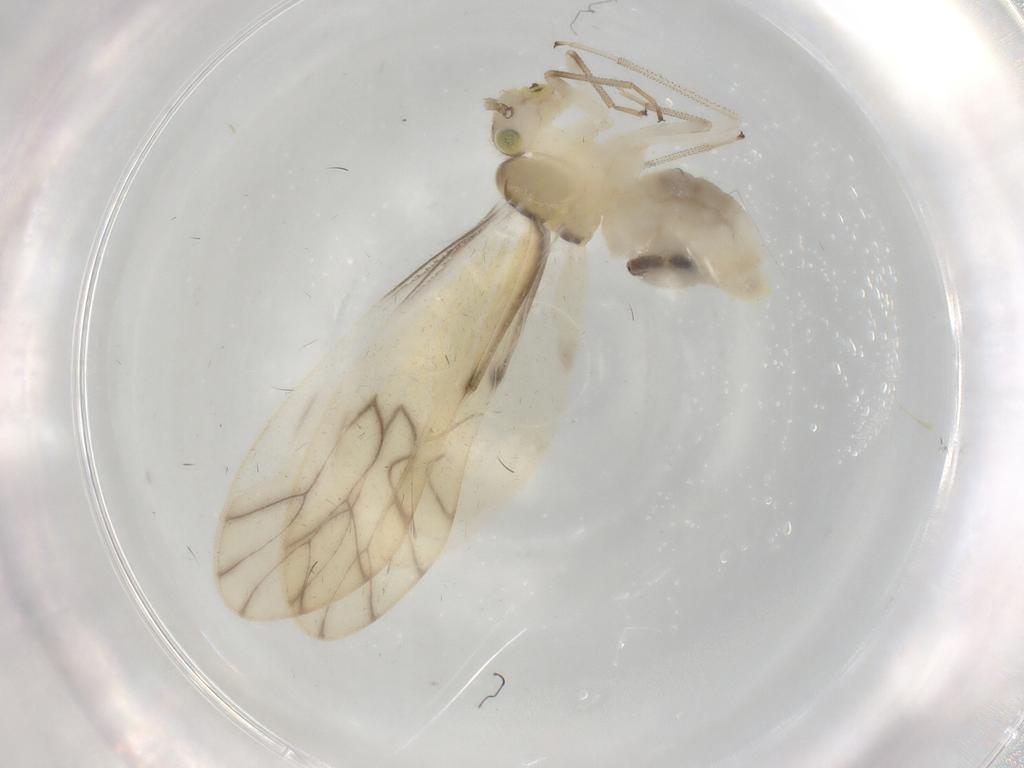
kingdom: Animalia
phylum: Arthropoda
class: Insecta
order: Psocodea
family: Caeciliusidae
